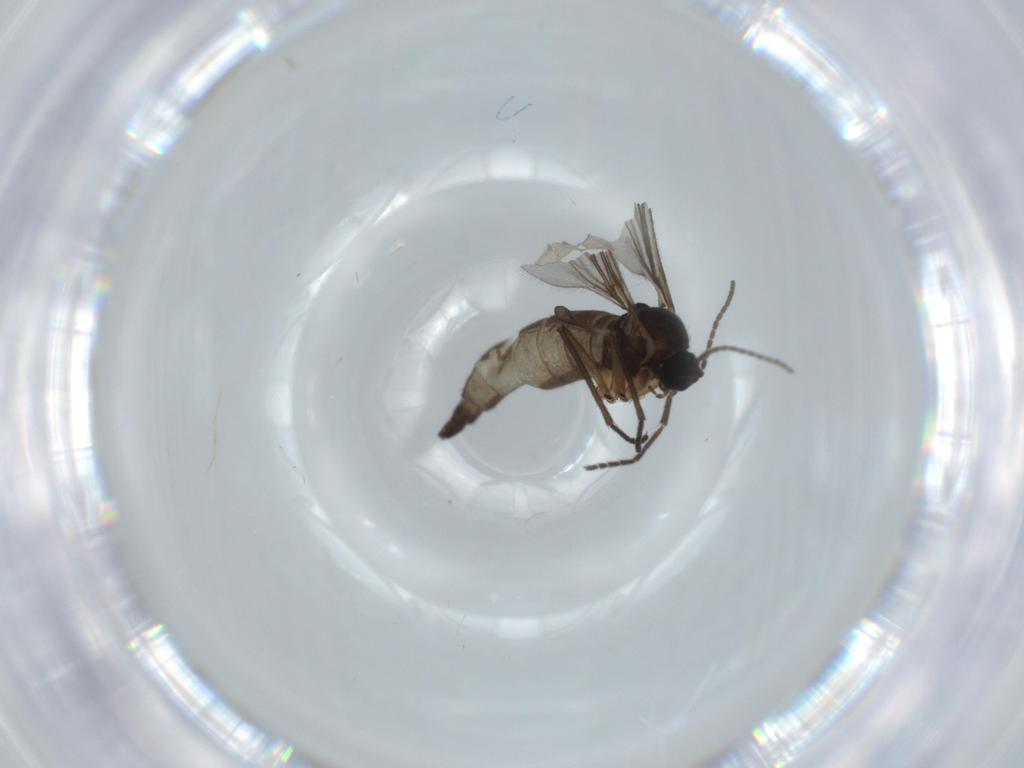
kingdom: Animalia
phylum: Arthropoda
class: Insecta
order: Diptera
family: Sciaridae
